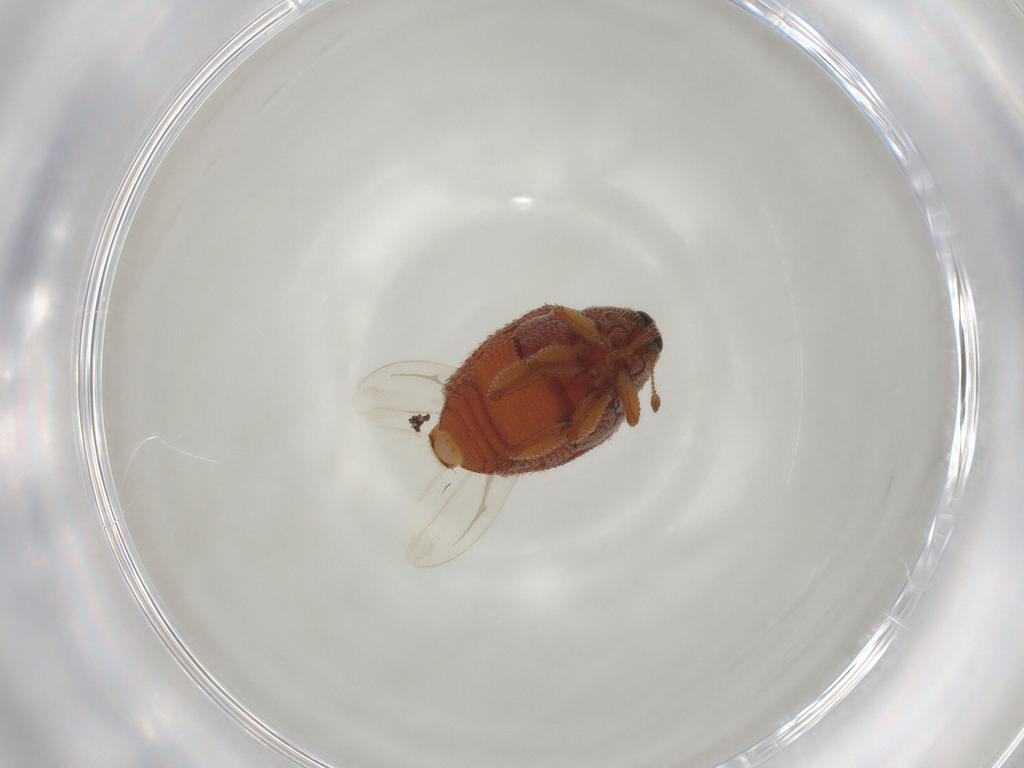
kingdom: Animalia
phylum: Arthropoda
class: Insecta
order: Coleoptera
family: Curculionidae
